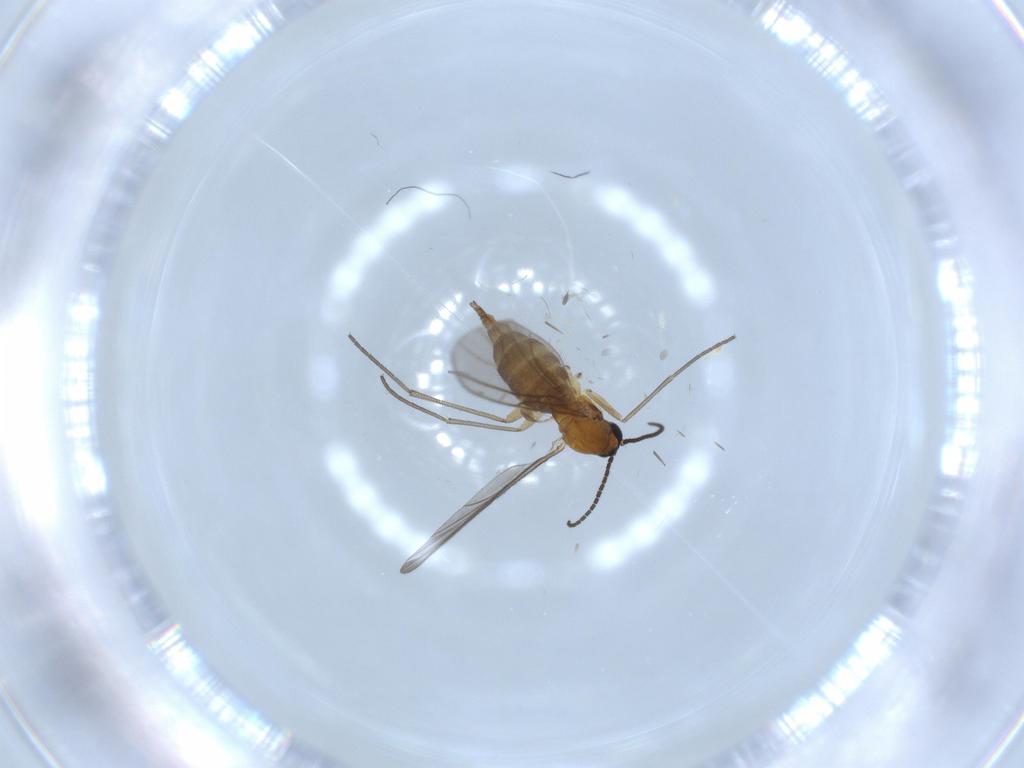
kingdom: Animalia
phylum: Arthropoda
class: Insecta
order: Diptera
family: Sciaridae
